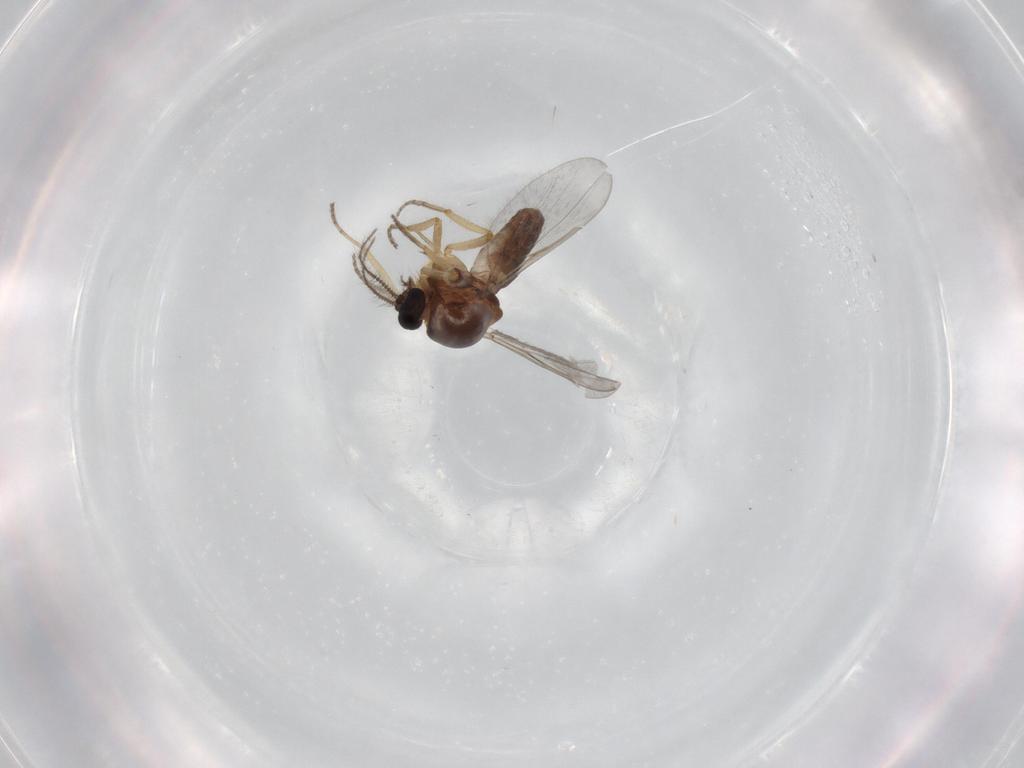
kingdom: Animalia
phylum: Arthropoda
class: Insecta
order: Diptera
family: Ceratopogonidae
